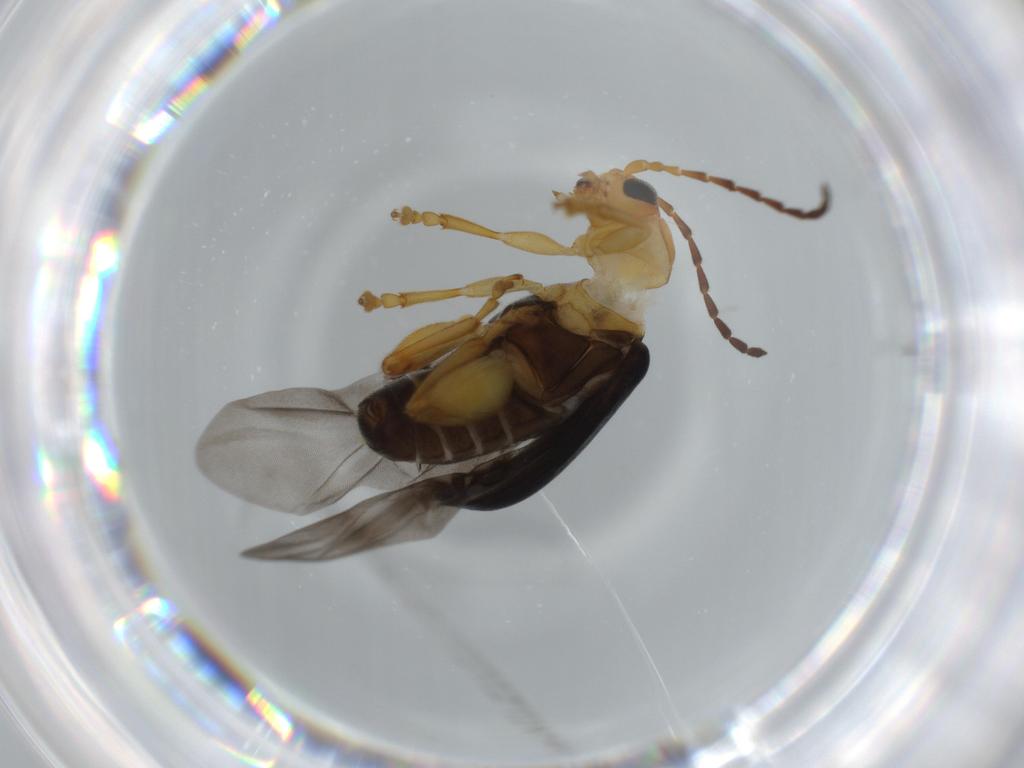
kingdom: Animalia
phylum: Arthropoda
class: Insecta
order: Coleoptera
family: Chrysomelidae
